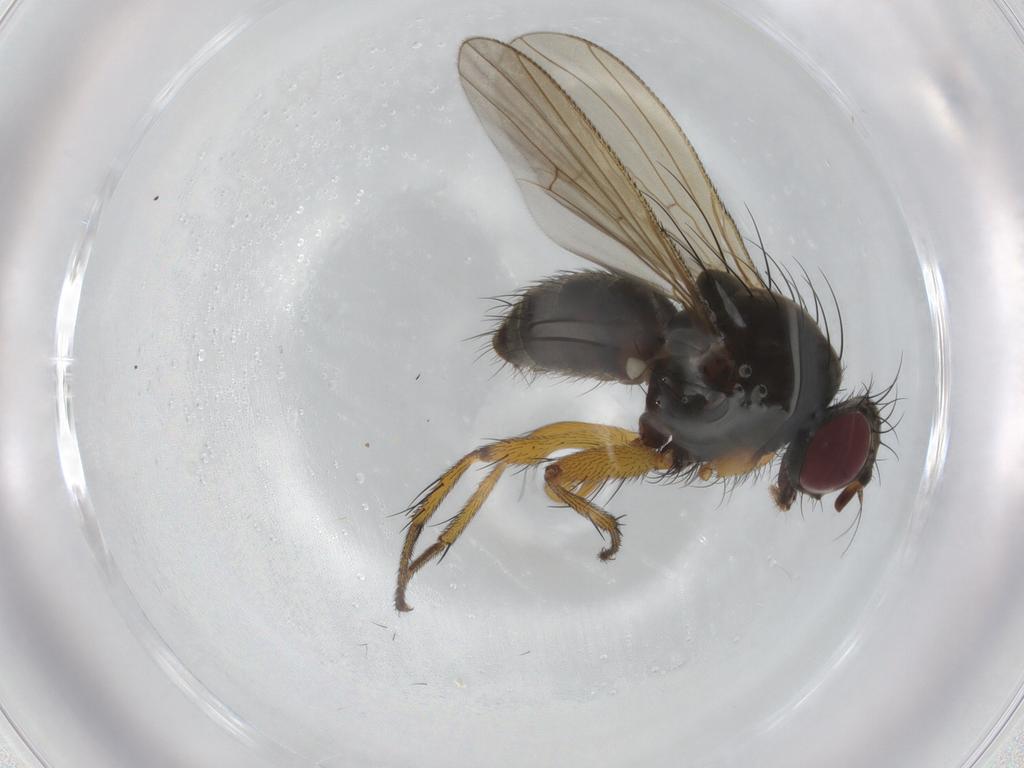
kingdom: Animalia
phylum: Arthropoda
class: Insecta
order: Diptera
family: Muscidae
